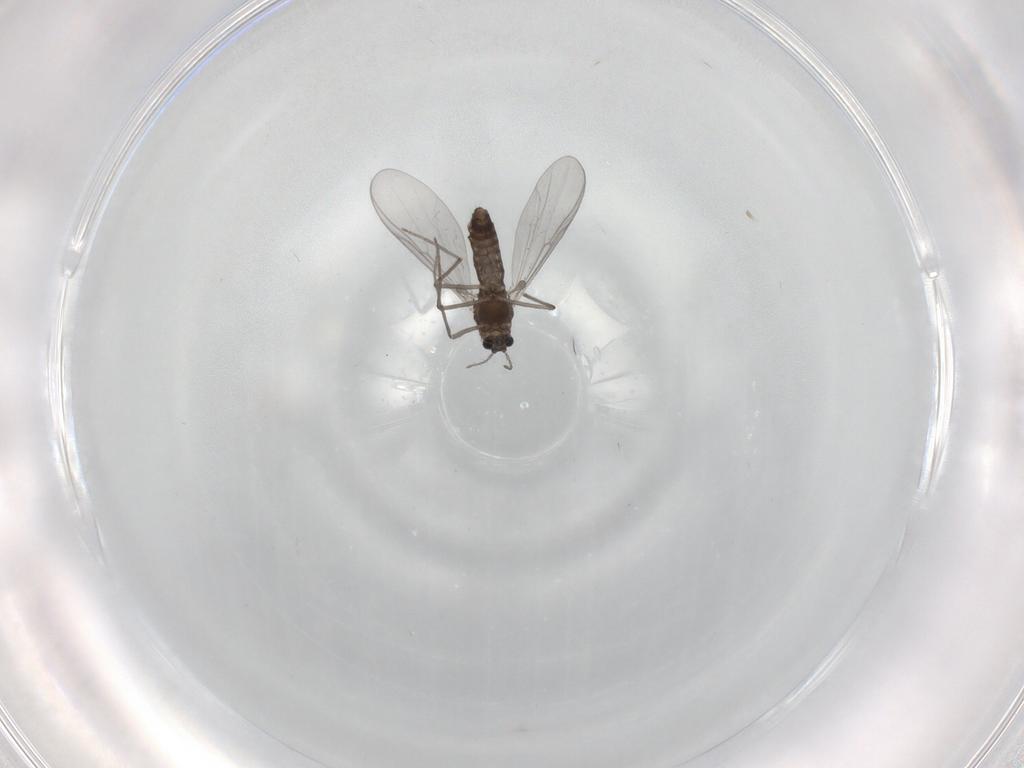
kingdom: Animalia
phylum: Arthropoda
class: Insecta
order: Diptera
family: Chironomidae
